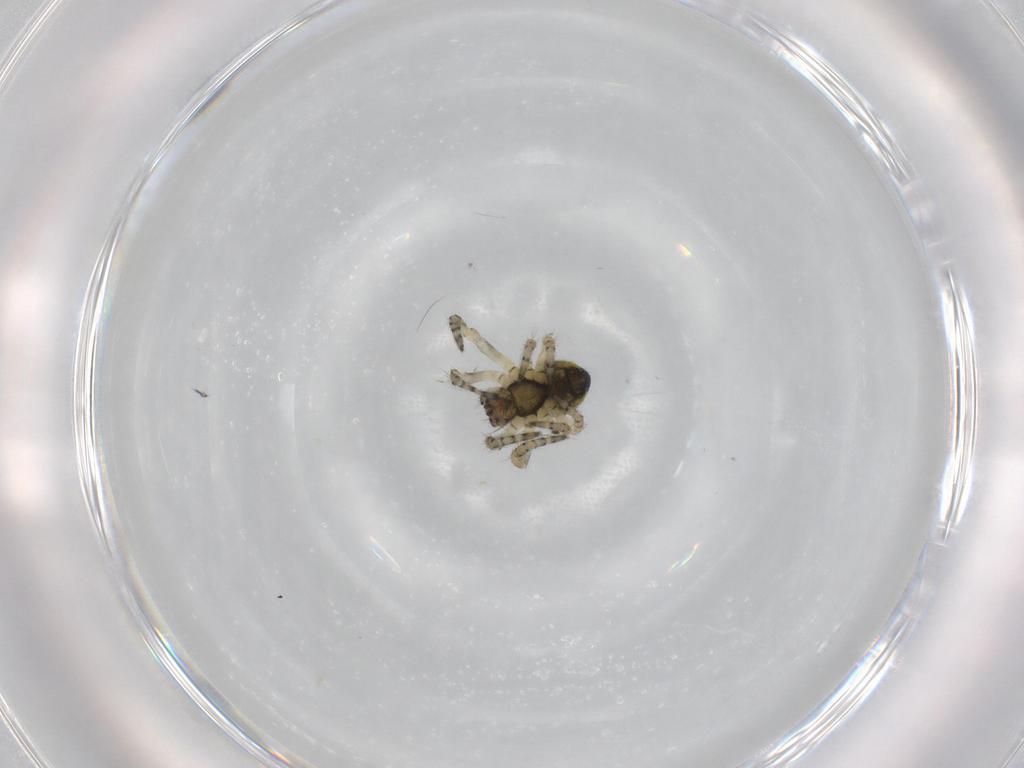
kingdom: Animalia
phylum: Arthropoda
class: Arachnida
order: Araneae
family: Araneidae
